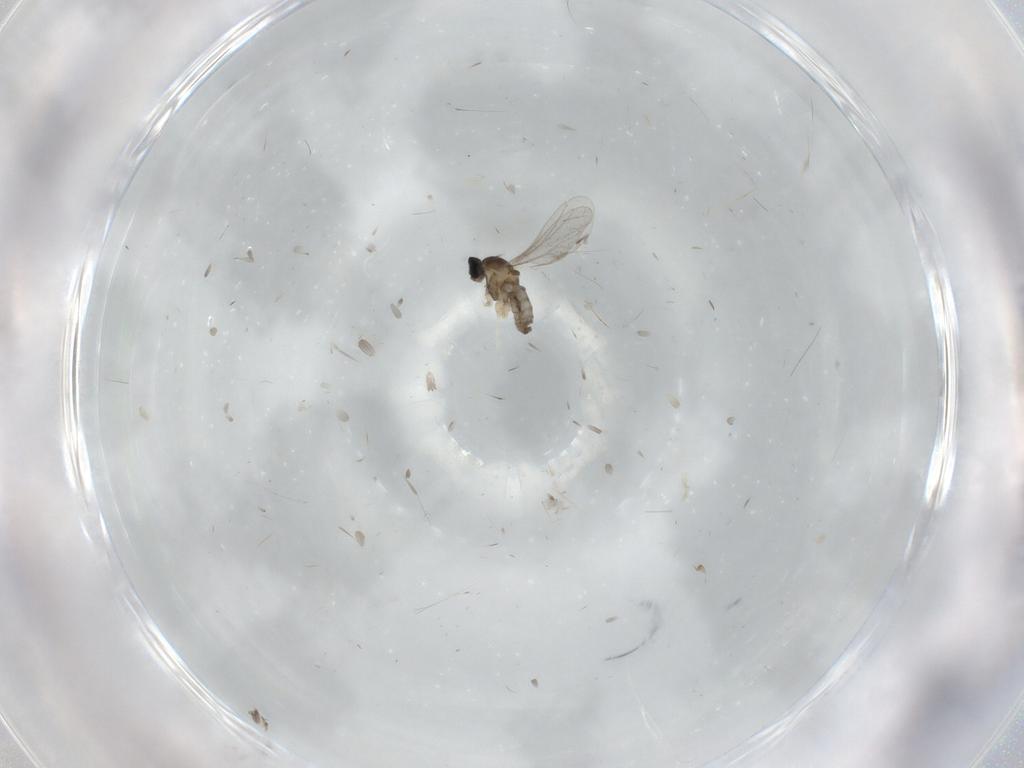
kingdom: Animalia
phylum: Arthropoda
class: Insecta
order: Diptera
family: Cecidomyiidae
